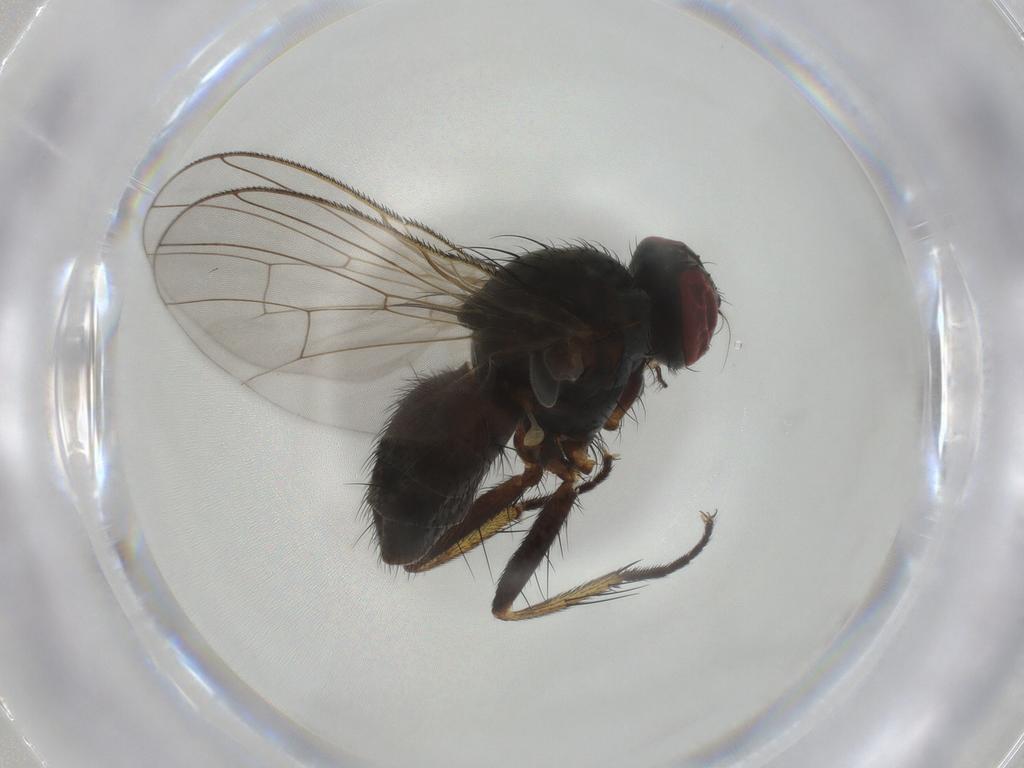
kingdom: Animalia
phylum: Arthropoda
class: Insecta
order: Diptera
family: Muscidae
